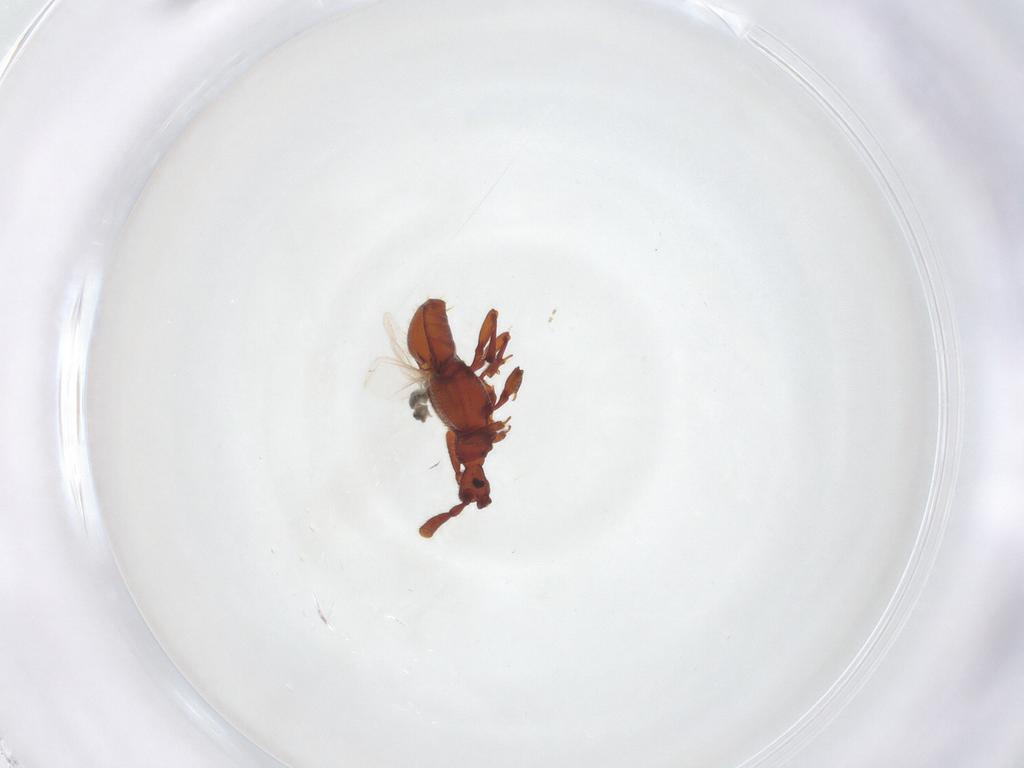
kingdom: Animalia
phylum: Arthropoda
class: Insecta
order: Coleoptera
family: Staphylinidae
